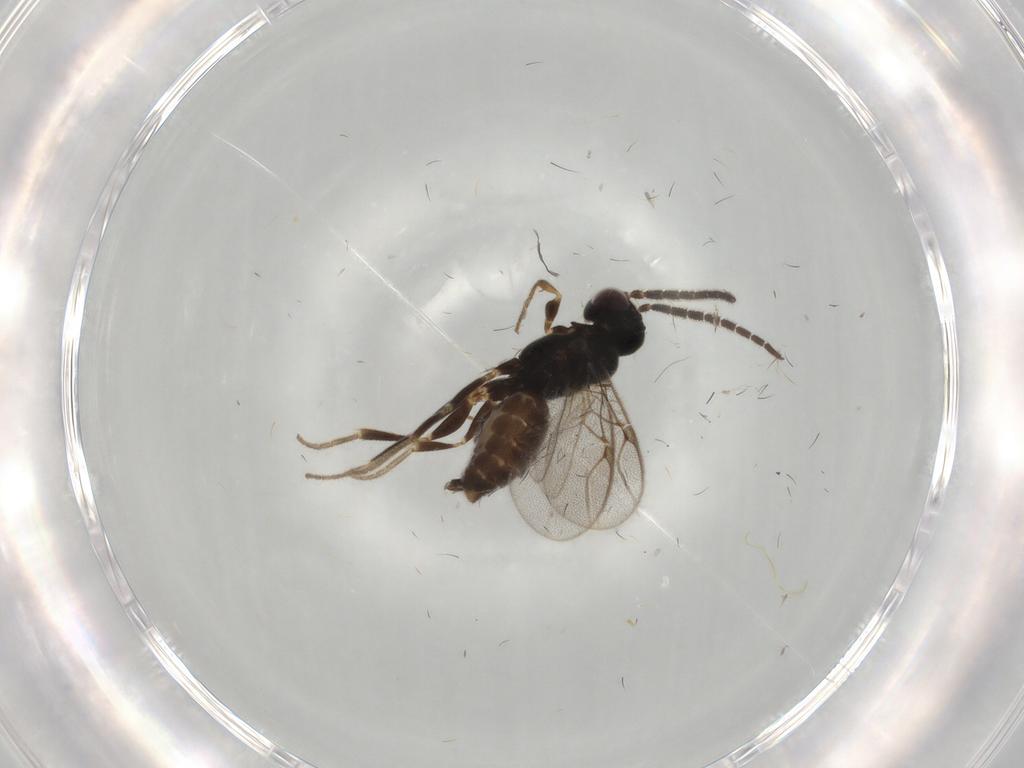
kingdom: Animalia
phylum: Arthropoda
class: Insecta
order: Hymenoptera
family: Dryinidae
